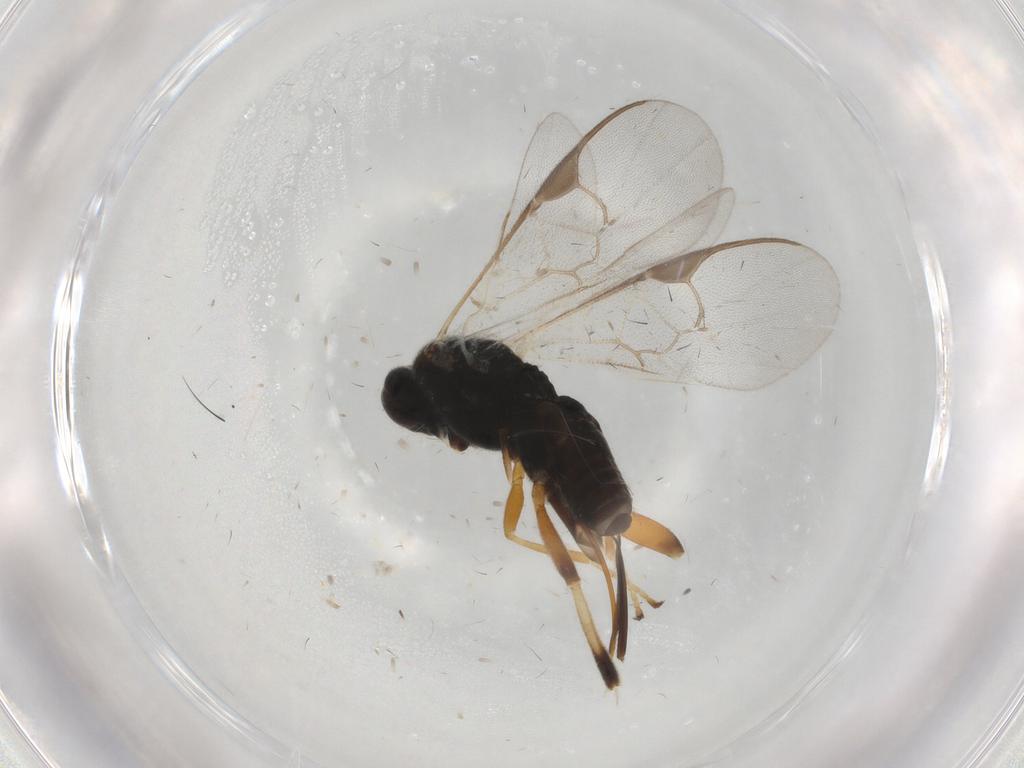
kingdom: Animalia
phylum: Arthropoda
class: Insecta
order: Hymenoptera
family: Braconidae
